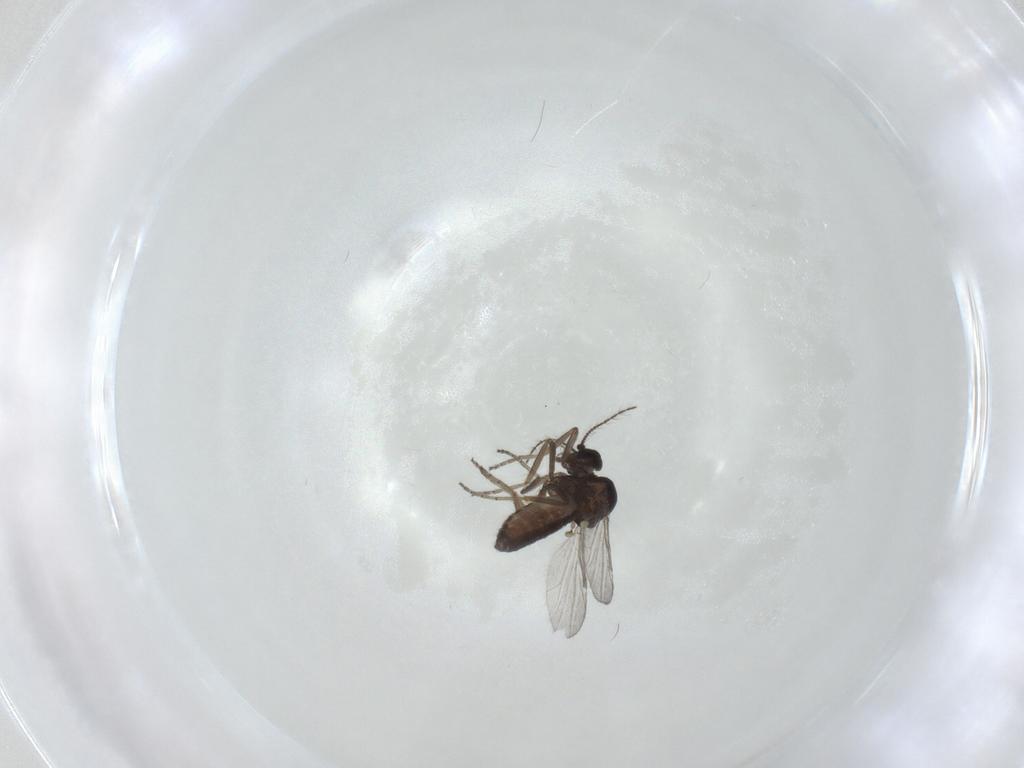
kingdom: Animalia
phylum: Arthropoda
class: Insecta
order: Diptera
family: Ceratopogonidae
